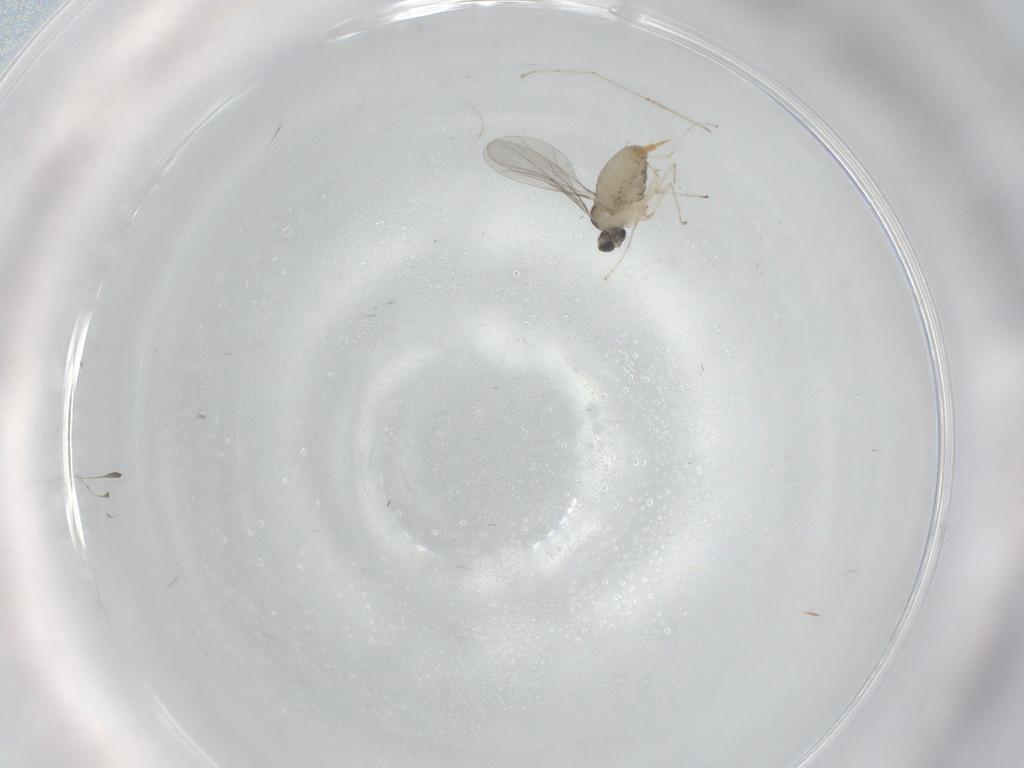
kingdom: Animalia
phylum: Arthropoda
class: Insecta
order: Diptera
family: Cecidomyiidae
